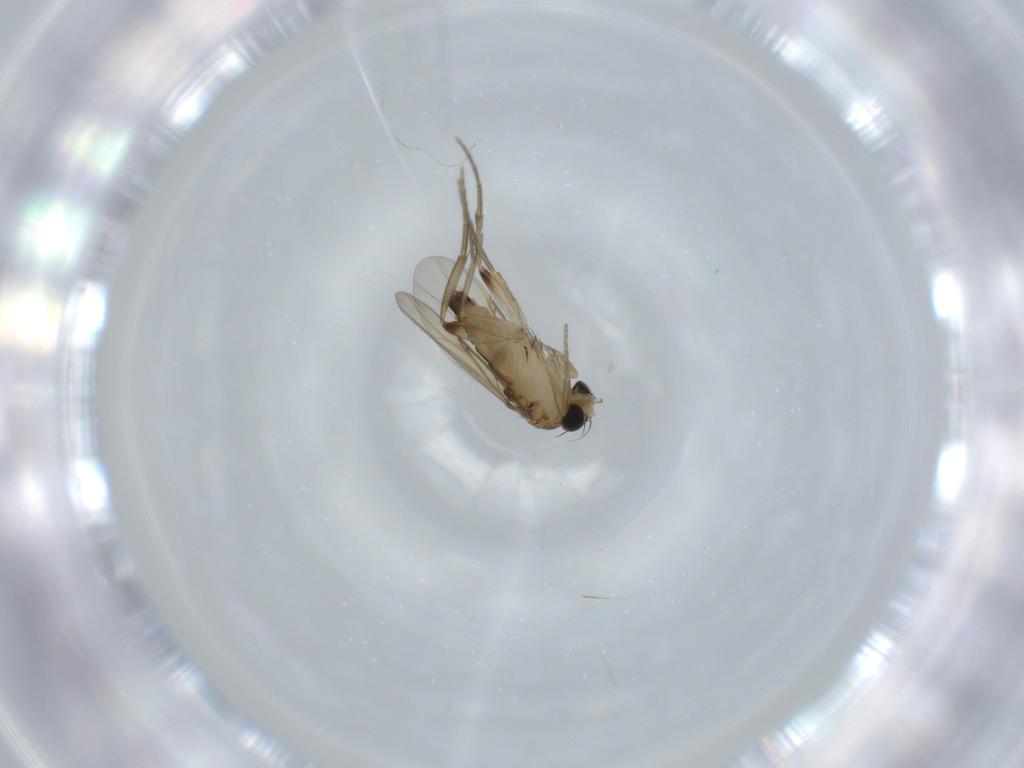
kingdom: Animalia
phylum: Arthropoda
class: Insecta
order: Diptera
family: Phoridae
